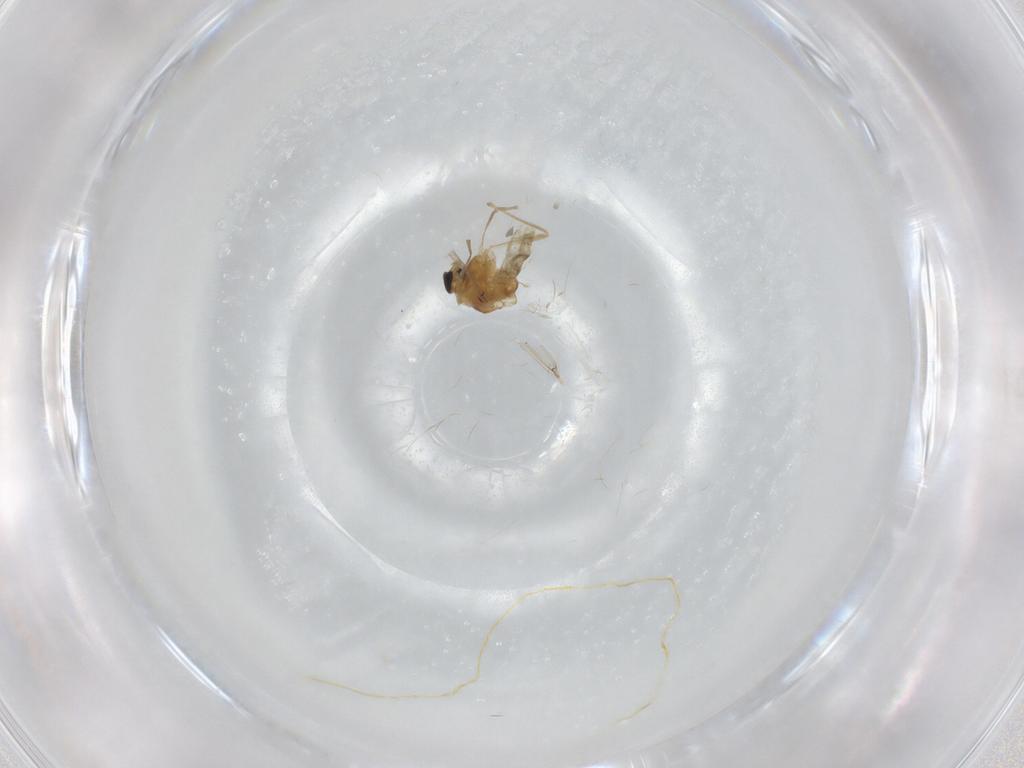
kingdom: Animalia
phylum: Arthropoda
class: Insecta
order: Diptera
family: Chironomidae
